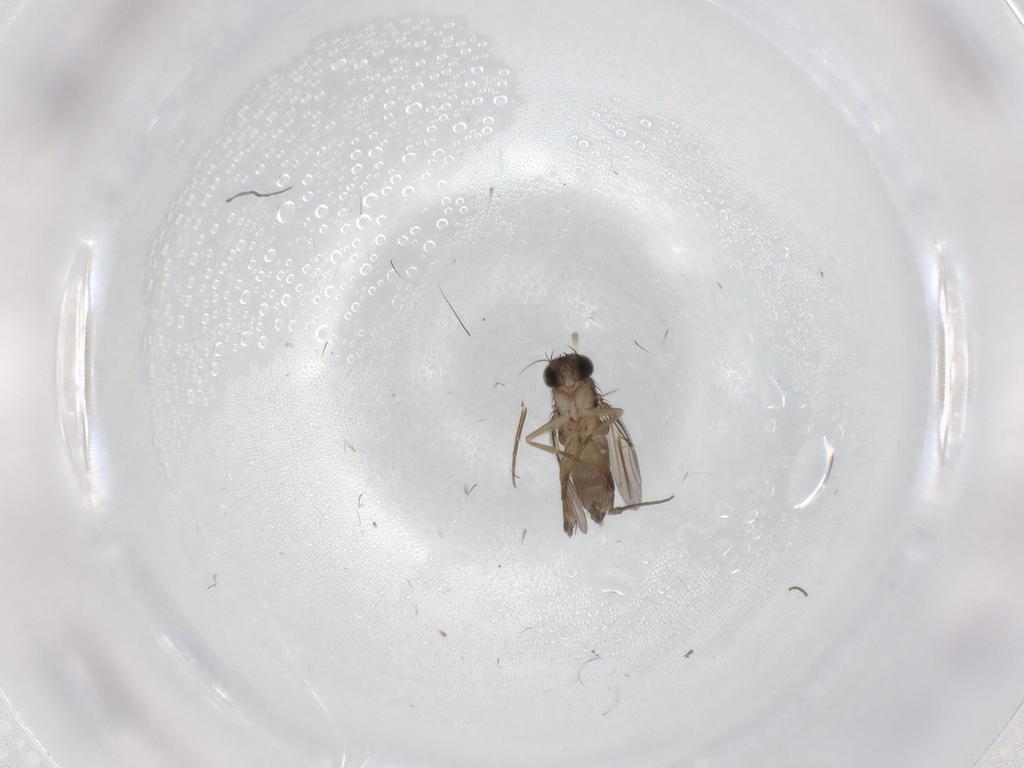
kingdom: Animalia
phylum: Arthropoda
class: Insecta
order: Diptera
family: Phoridae
